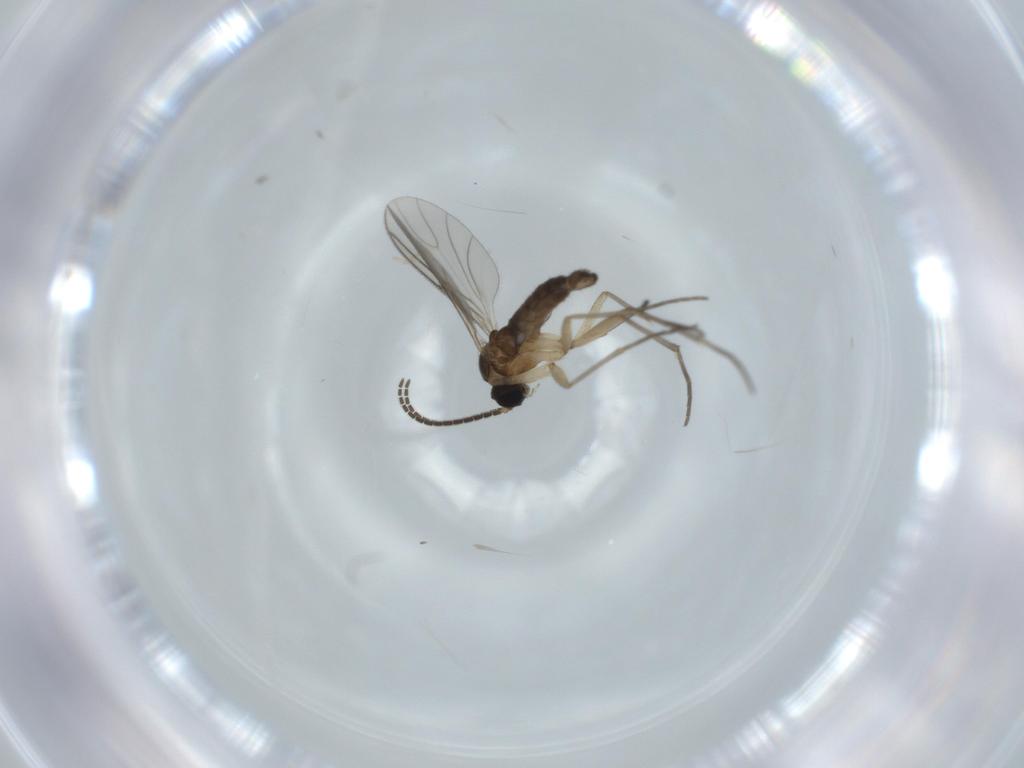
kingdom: Animalia
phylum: Arthropoda
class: Insecta
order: Diptera
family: Sciaridae
